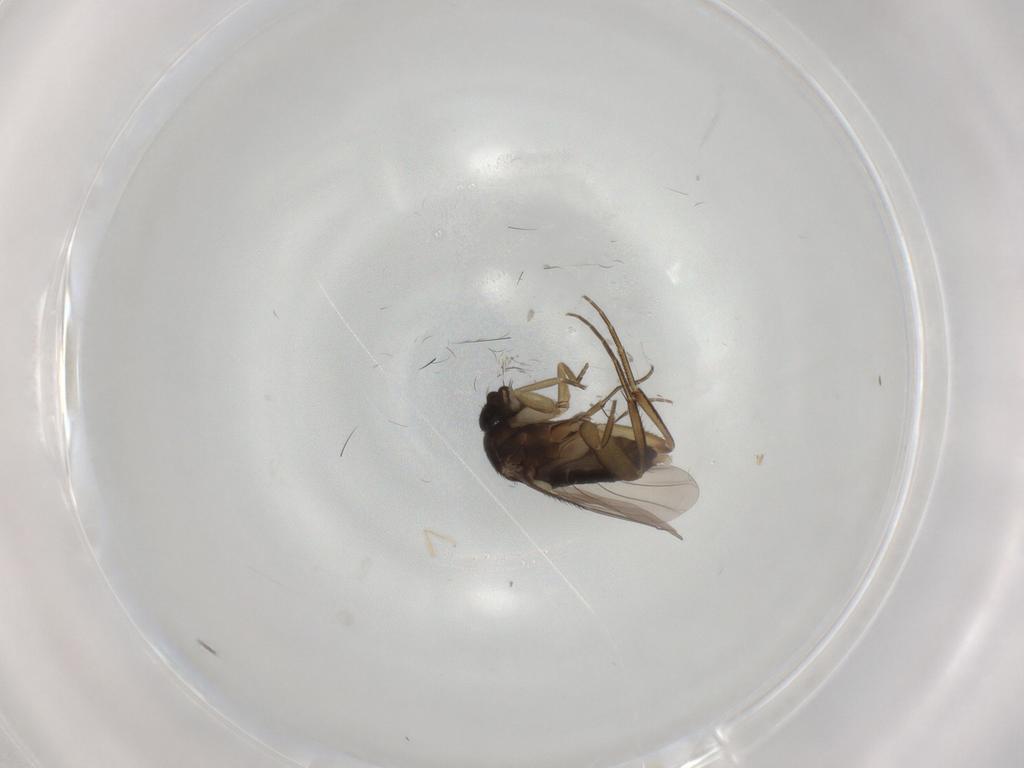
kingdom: Animalia
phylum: Arthropoda
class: Insecta
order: Diptera
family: Phoridae
